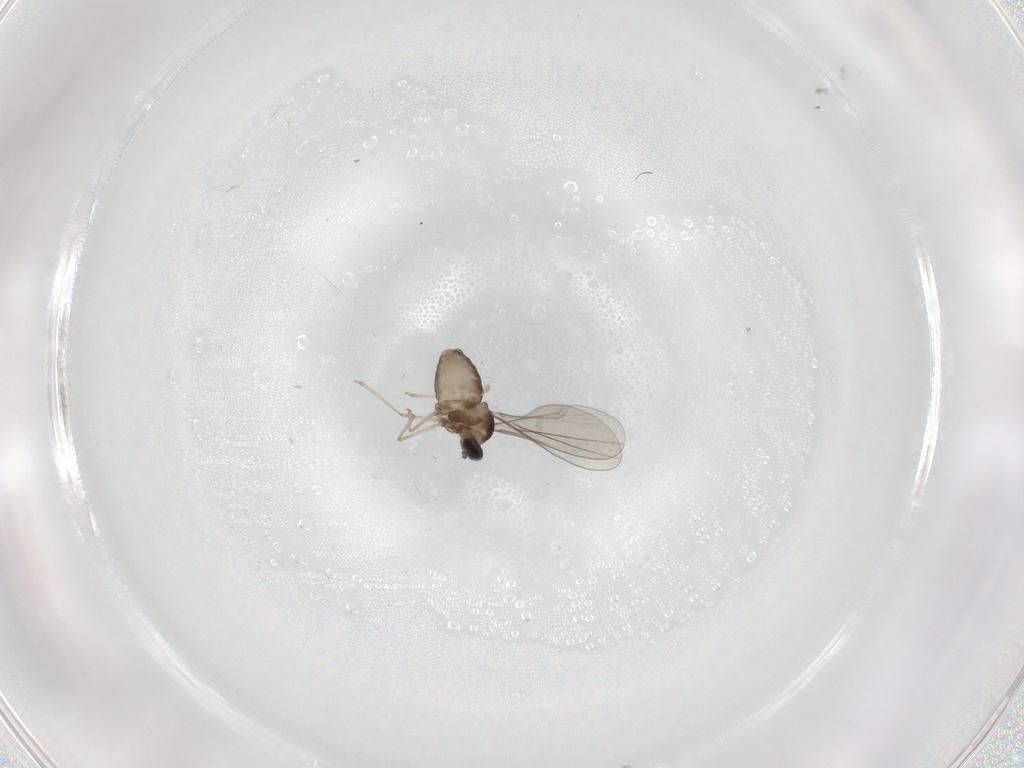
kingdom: Animalia
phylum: Arthropoda
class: Insecta
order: Diptera
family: Cecidomyiidae
